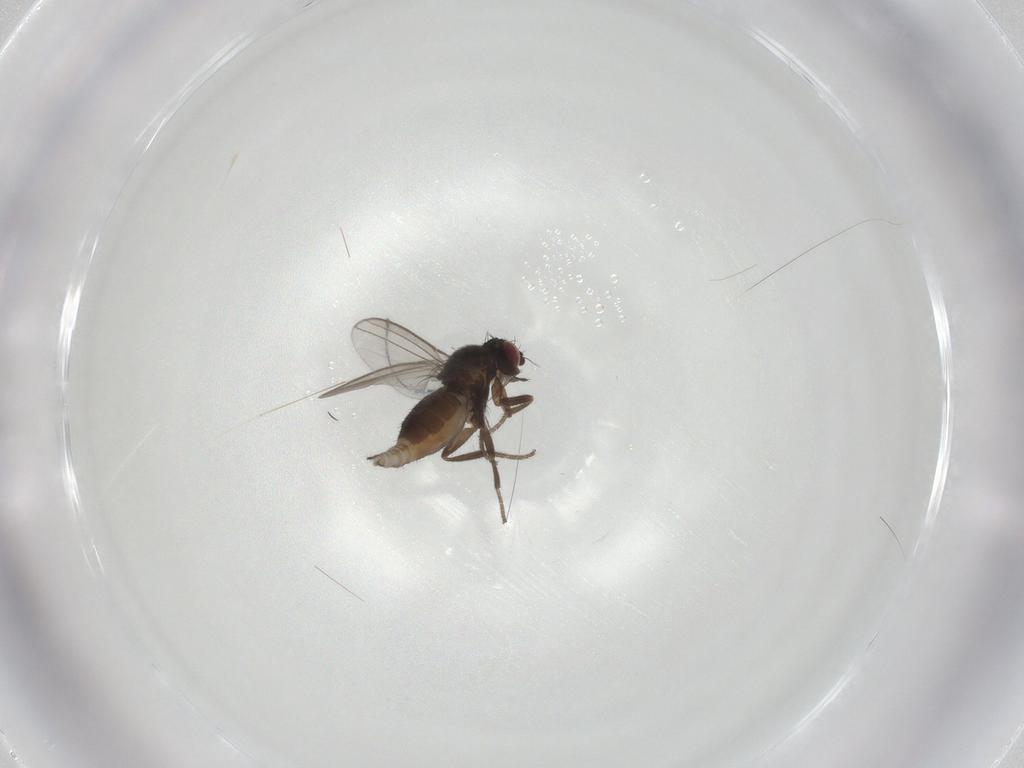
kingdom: Animalia
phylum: Arthropoda
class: Insecta
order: Diptera
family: Milichiidae
